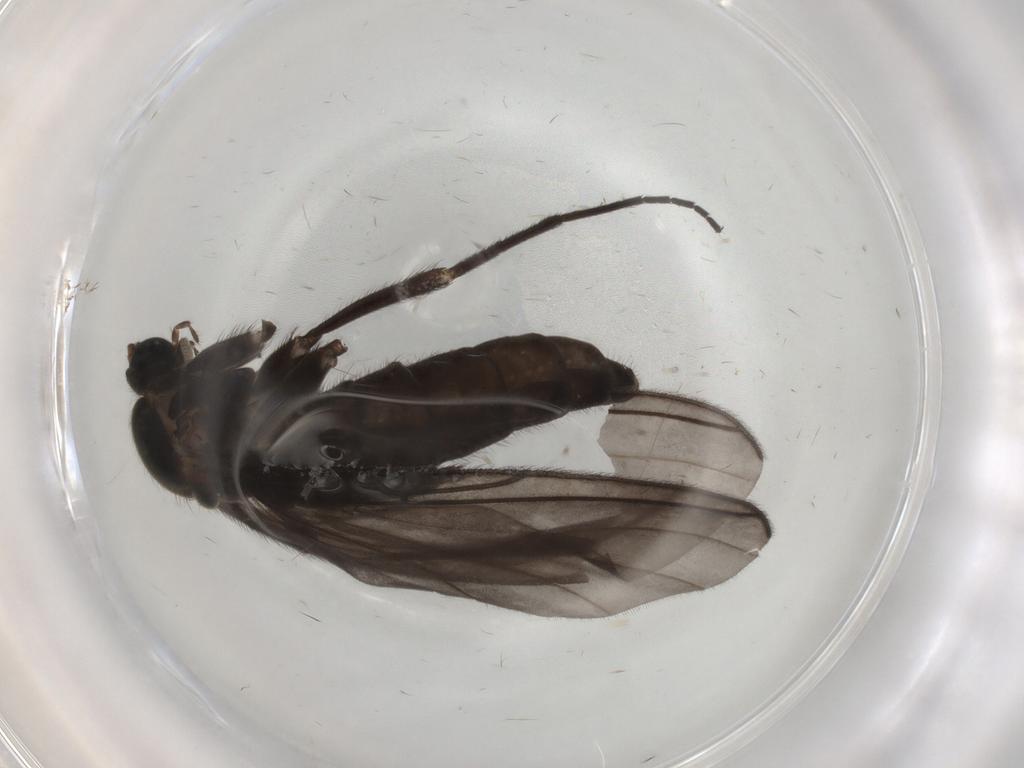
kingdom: Animalia
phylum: Arthropoda
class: Insecta
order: Diptera
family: Sciaridae
